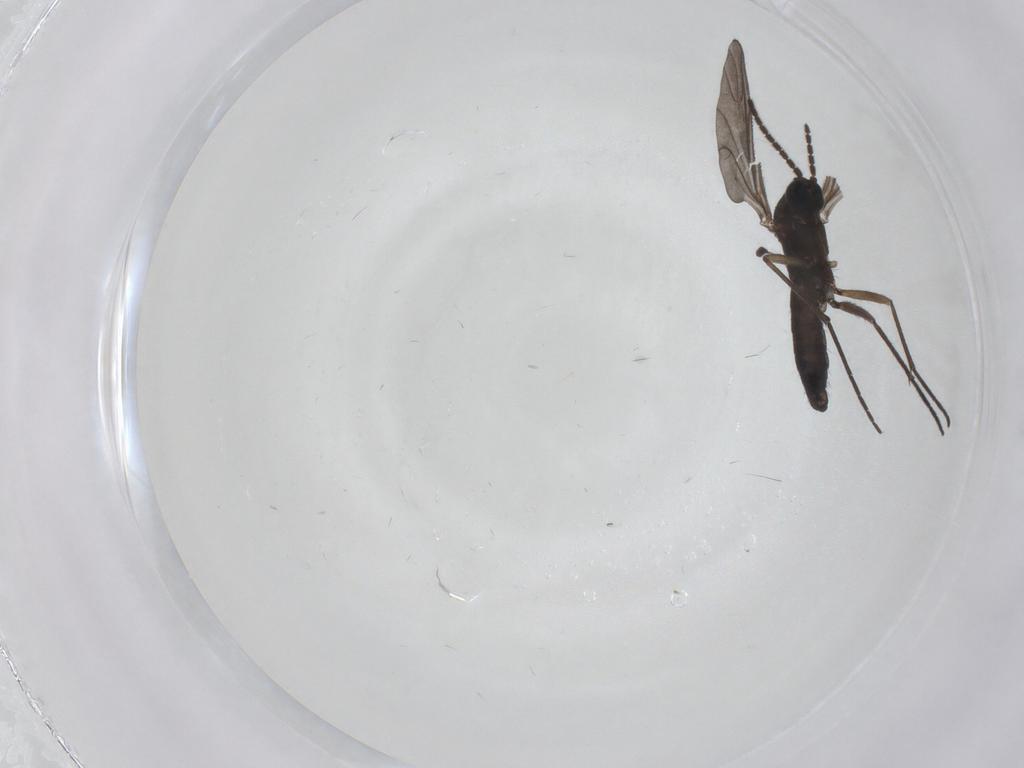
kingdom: Animalia
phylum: Arthropoda
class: Insecta
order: Diptera
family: Sciaridae
